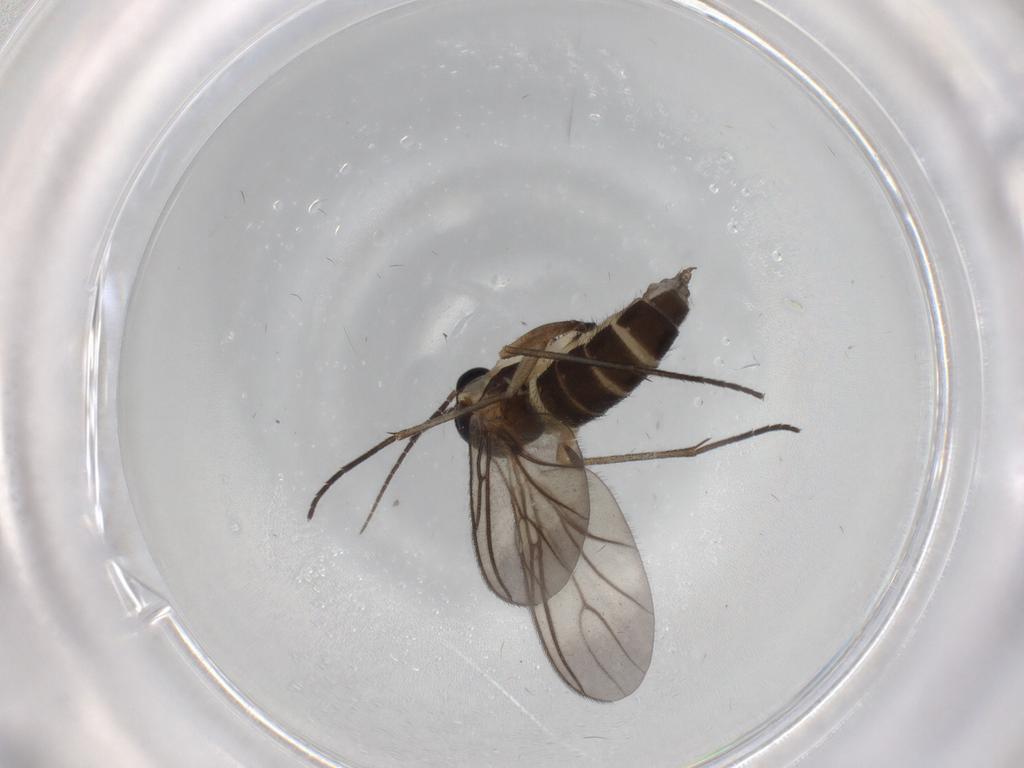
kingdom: Animalia
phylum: Arthropoda
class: Insecta
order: Diptera
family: Sciaridae
